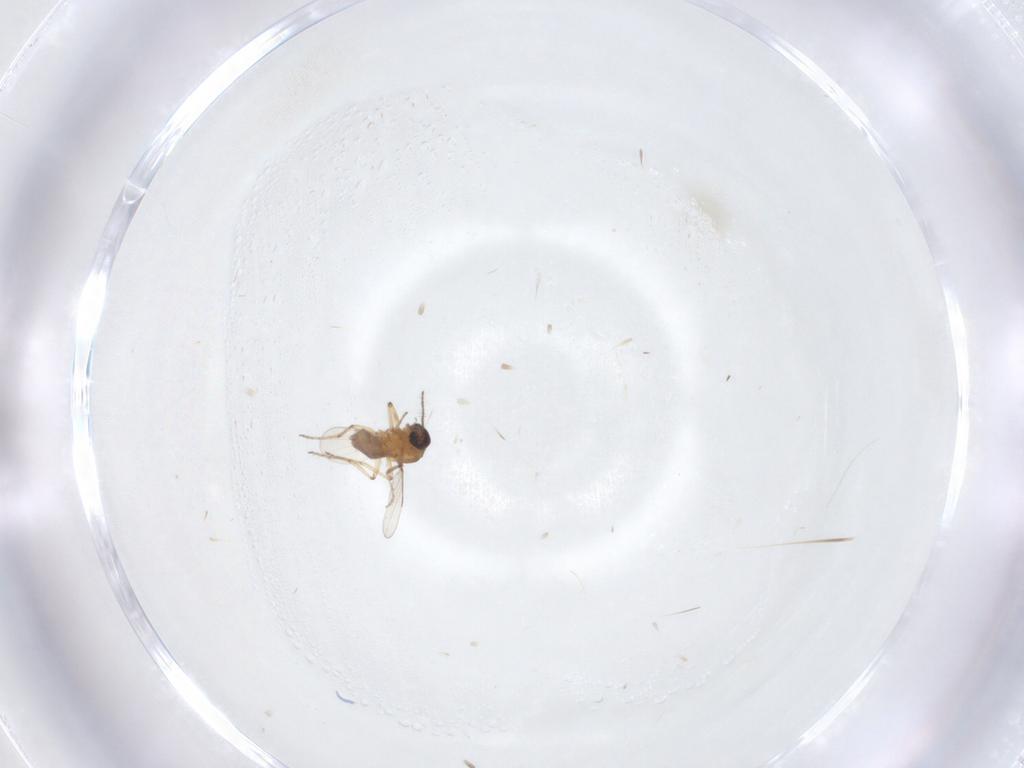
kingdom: Animalia
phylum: Arthropoda
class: Insecta
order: Diptera
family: Ceratopogonidae
